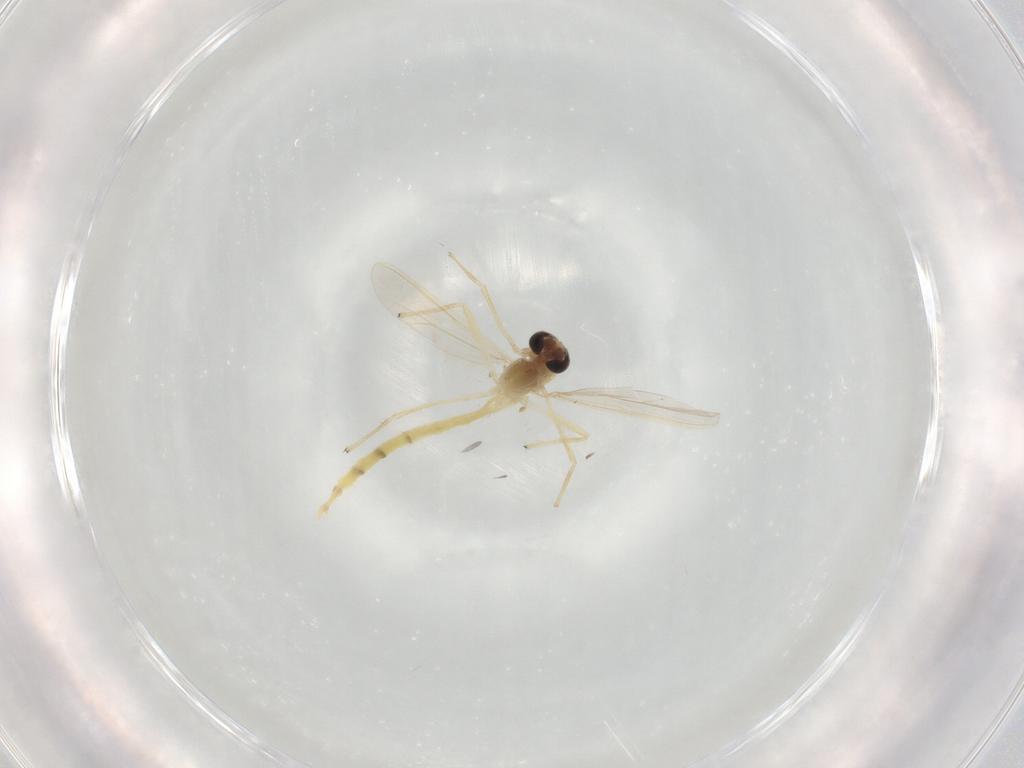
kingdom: Animalia
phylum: Arthropoda
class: Insecta
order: Diptera
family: Chironomidae
